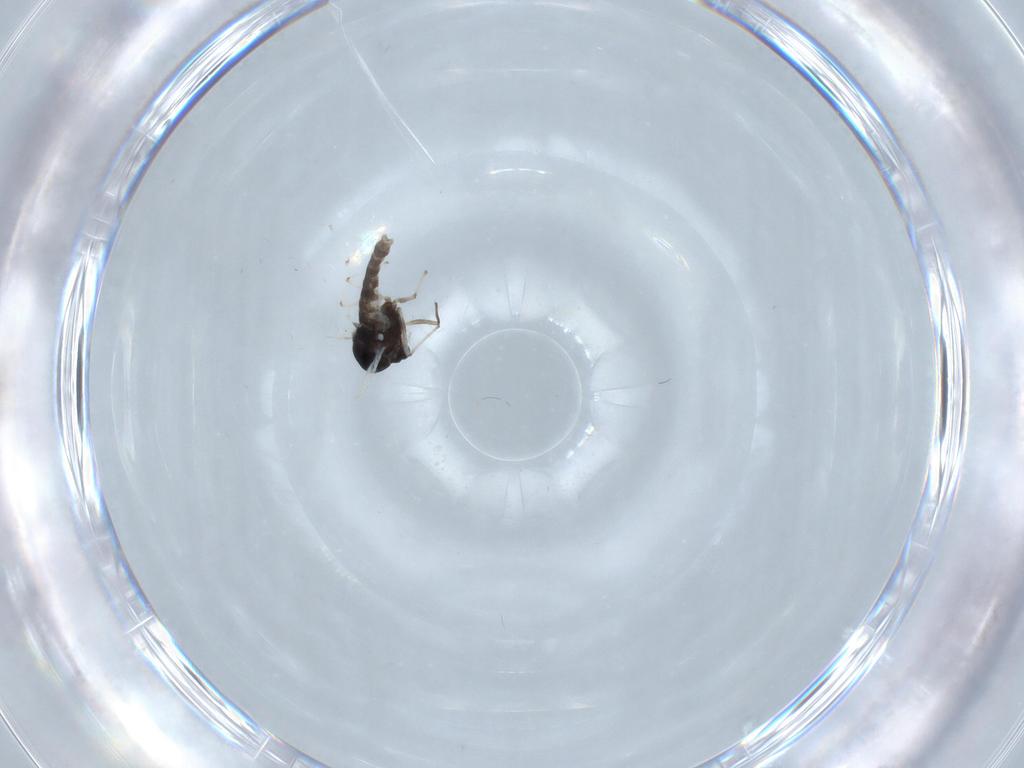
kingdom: Animalia
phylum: Arthropoda
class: Insecta
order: Diptera
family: Chironomidae
